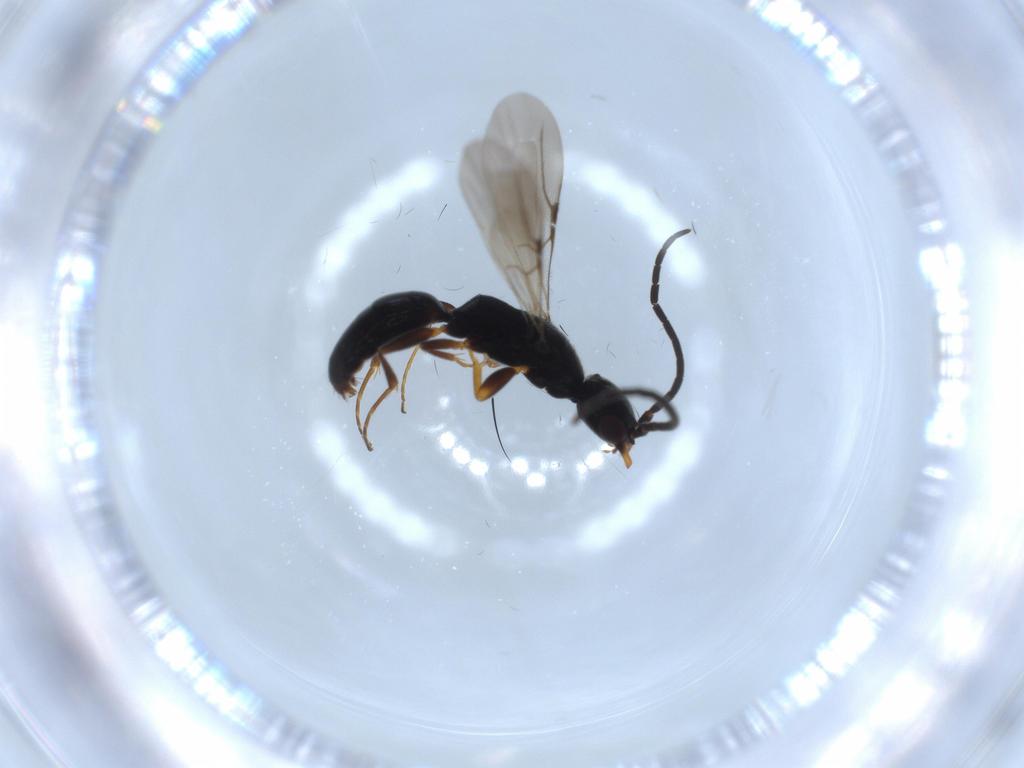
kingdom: Animalia
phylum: Arthropoda
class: Insecta
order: Hymenoptera
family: Bethylidae
